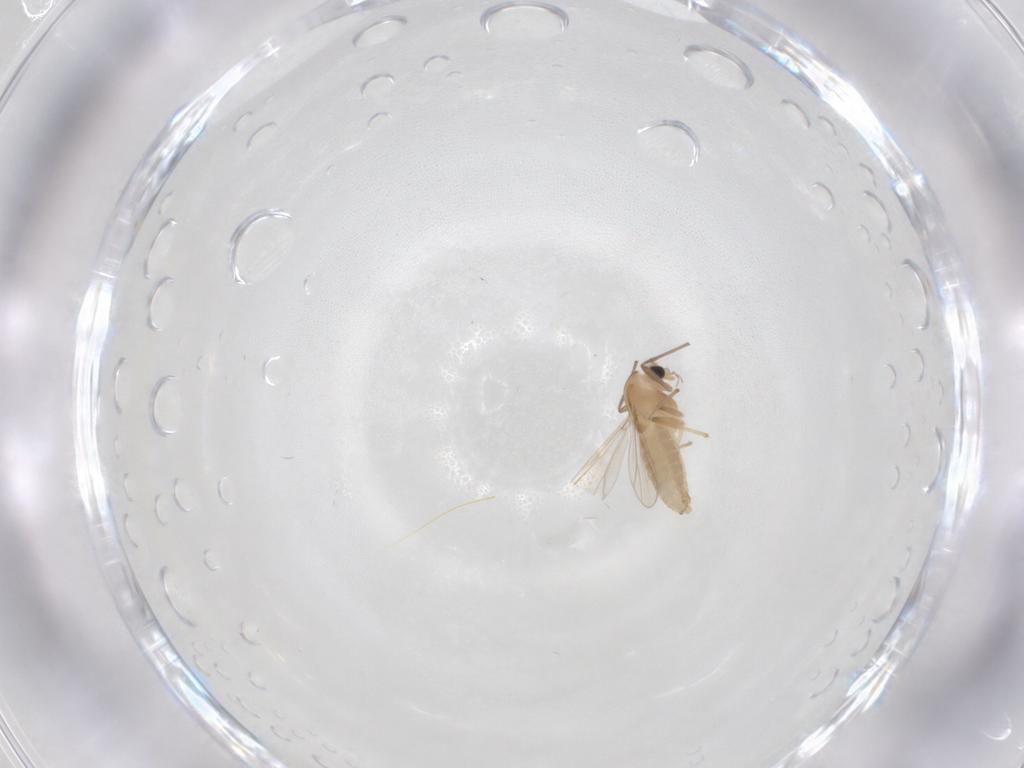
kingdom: Animalia
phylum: Arthropoda
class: Insecta
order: Diptera
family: Chironomidae
